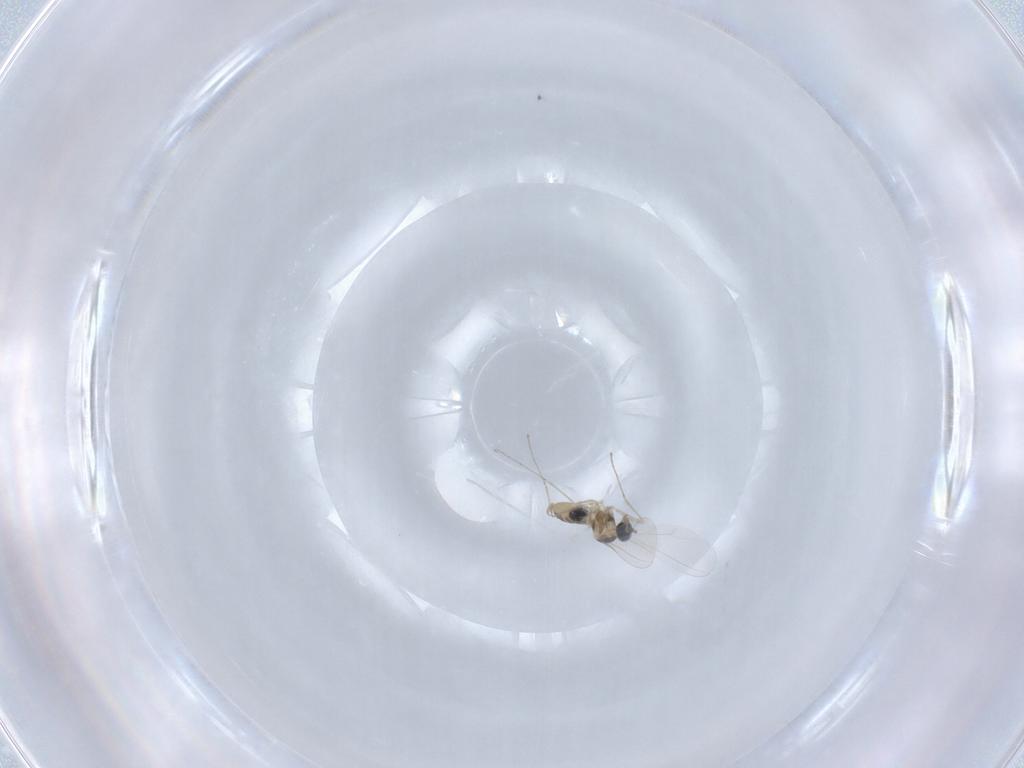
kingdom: Animalia
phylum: Arthropoda
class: Insecta
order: Diptera
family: Cecidomyiidae
